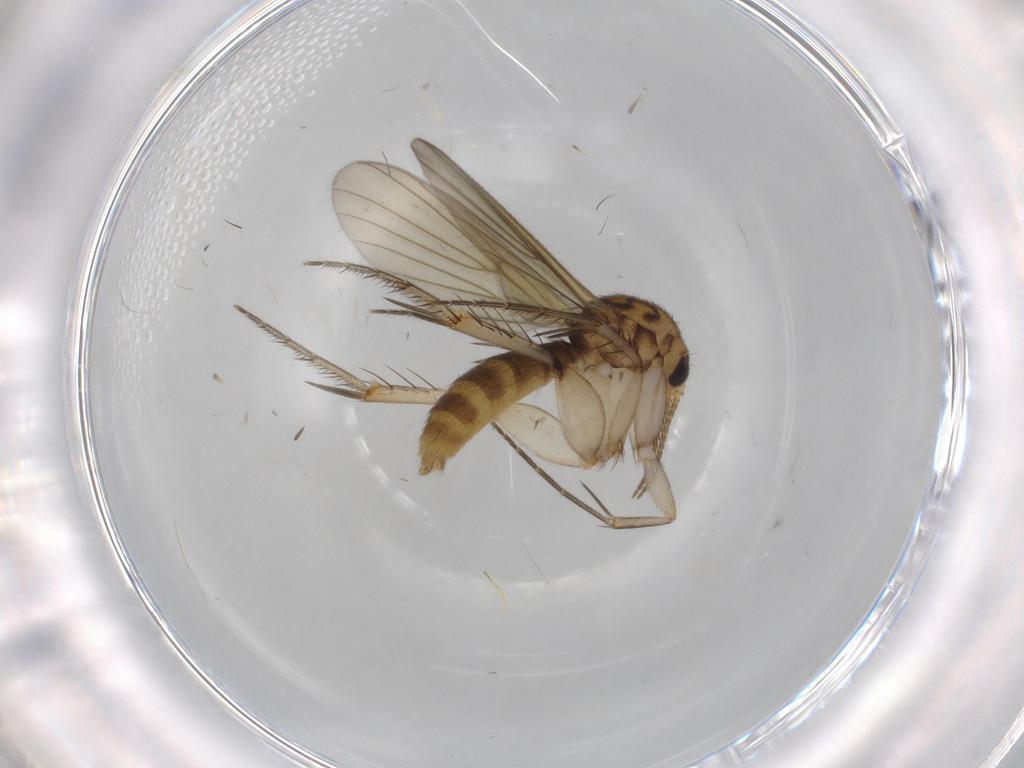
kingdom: Animalia
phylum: Arthropoda
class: Insecta
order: Diptera
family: Mycetophilidae
